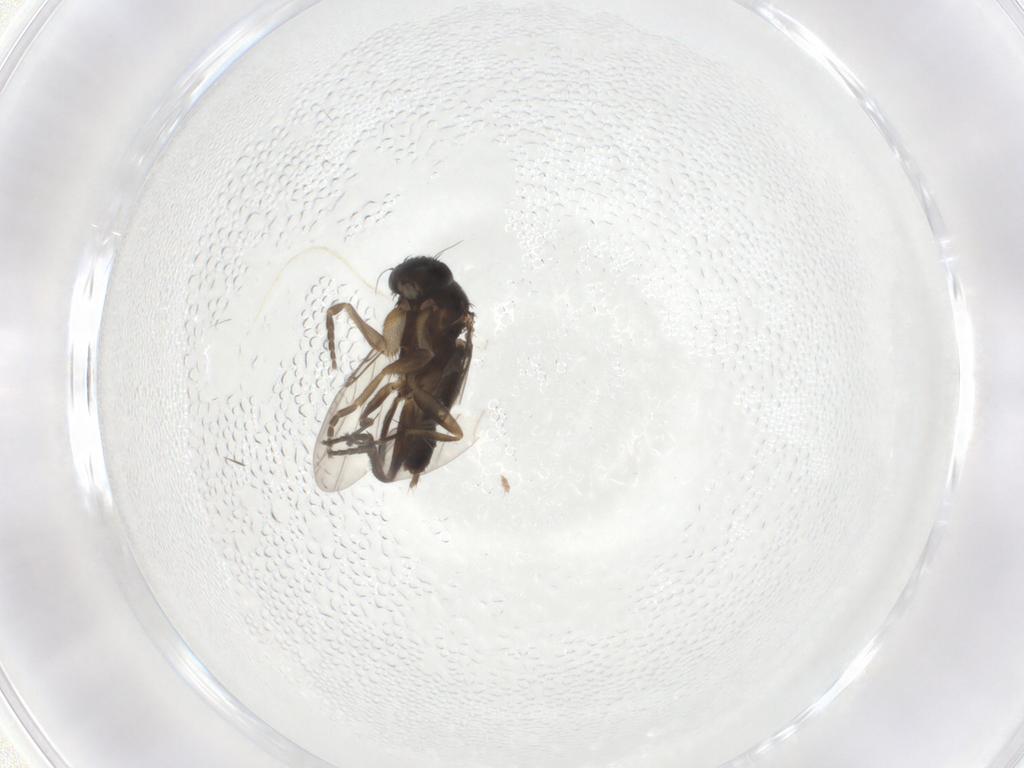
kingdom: Animalia
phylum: Arthropoda
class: Insecta
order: Diptera
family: Phoridae
